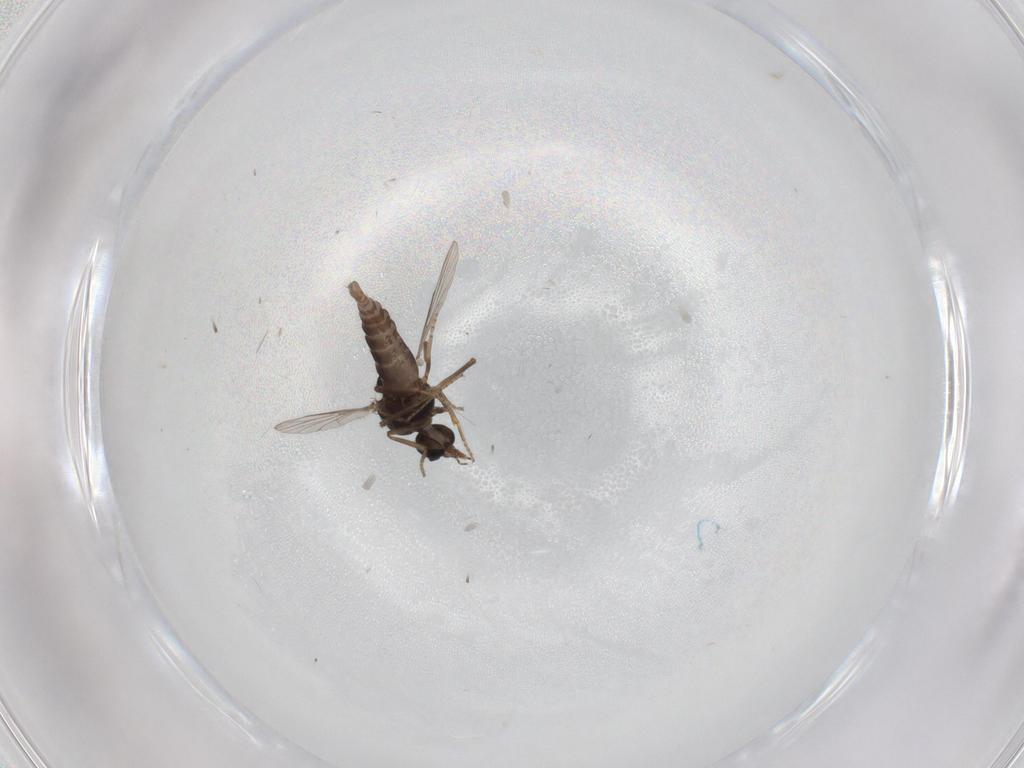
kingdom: Animalia
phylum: Arthropoda
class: Insecta
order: Diptera
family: Ceratopogonidae
